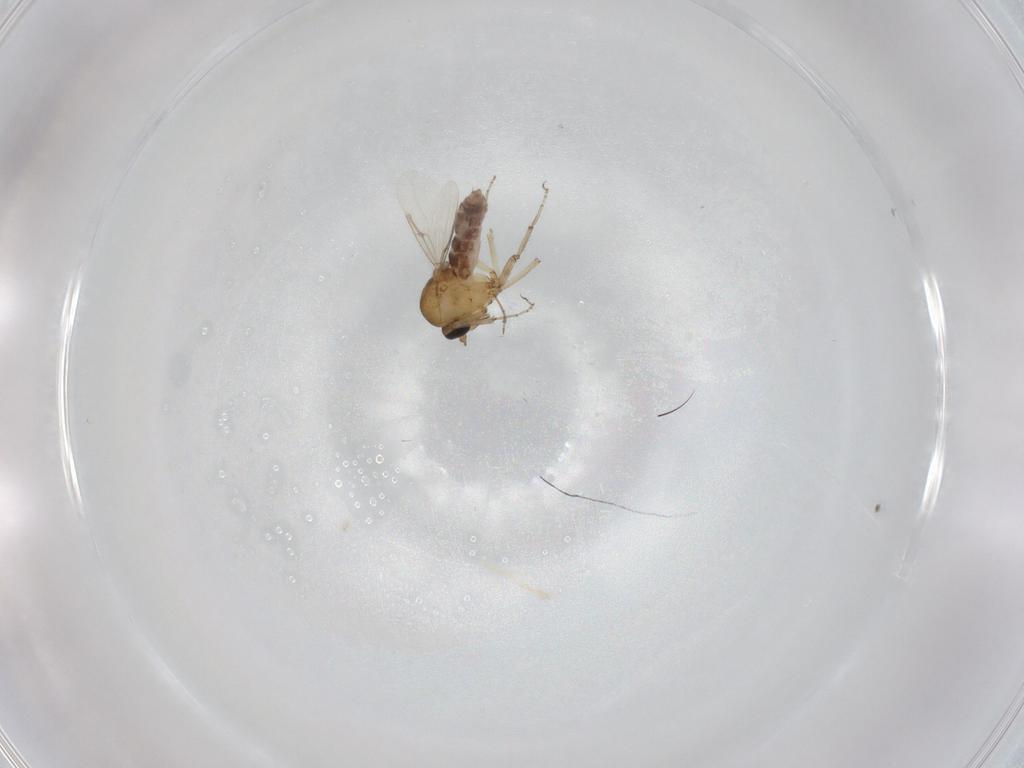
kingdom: Animalia
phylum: Arthropoda
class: Insecta
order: Diptera
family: Ceratopogonidae
